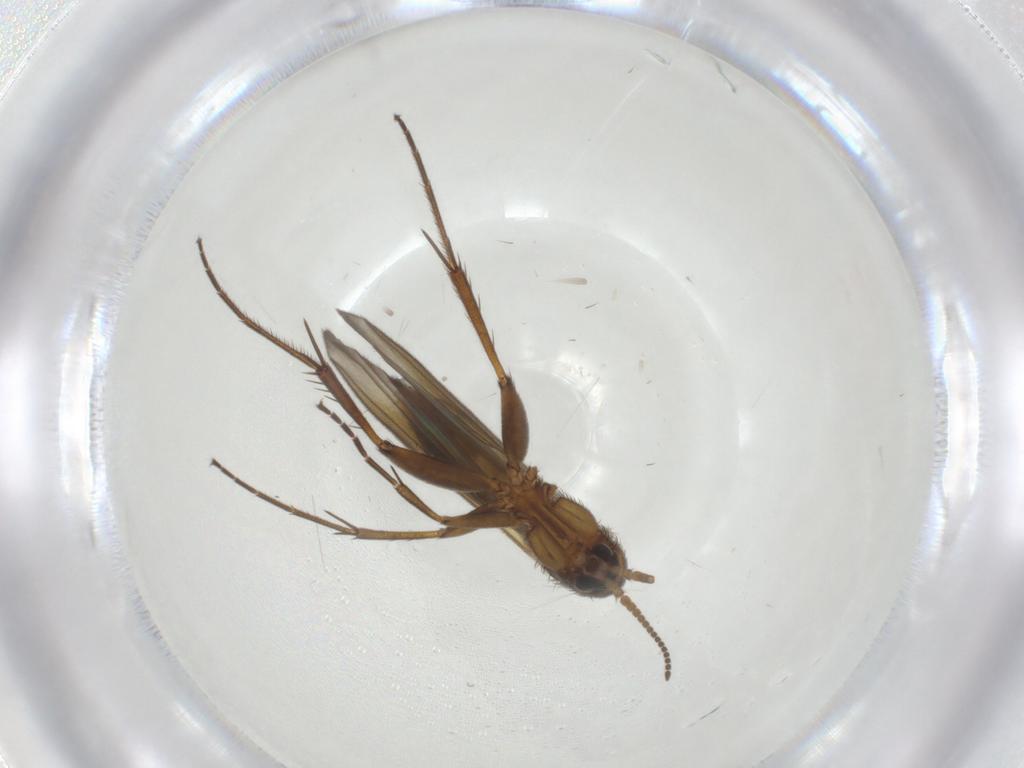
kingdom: Animalia
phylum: Arthropoda
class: Insecta
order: Diptera
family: Mycetophilidae
